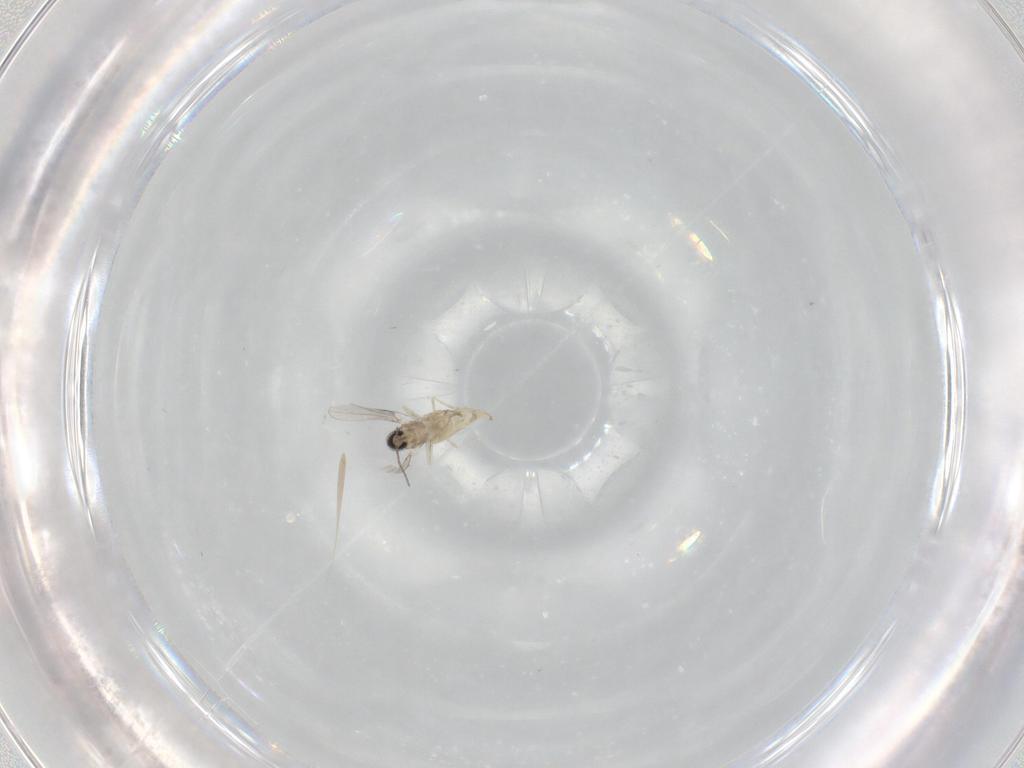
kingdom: Animalia
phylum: Arthropoda
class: Insecta
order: Diptera
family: Cecidomyiidae
